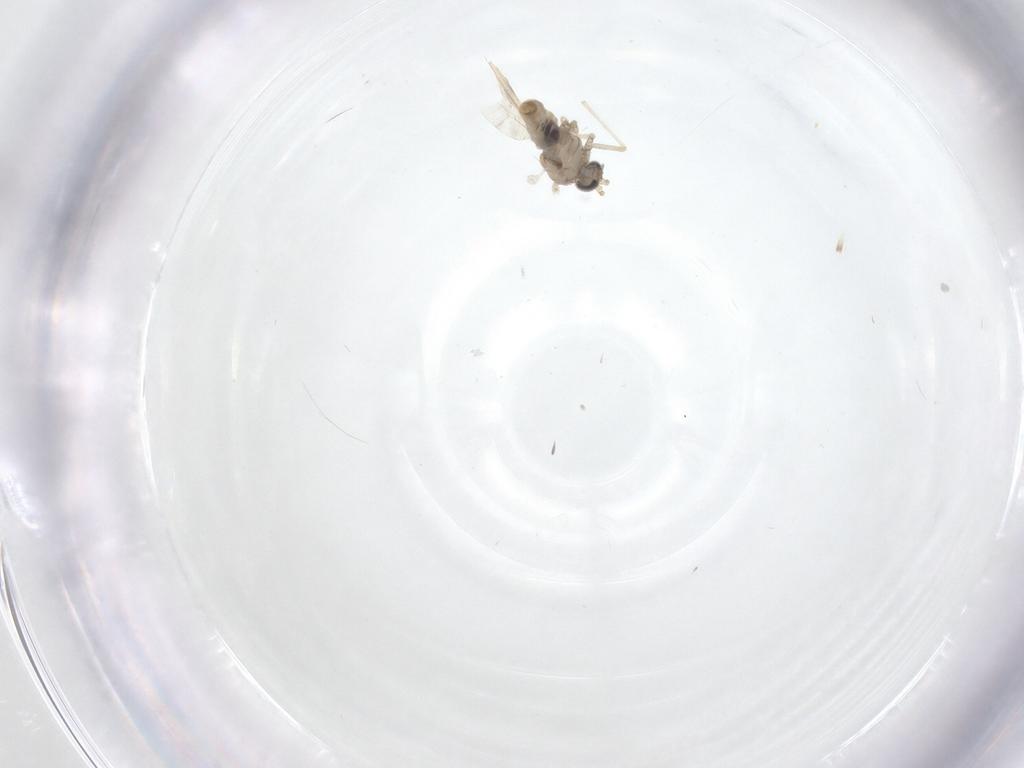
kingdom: Animalia
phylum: Arthropoda
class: Insecta
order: Diptera
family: Cecidomyiidae
